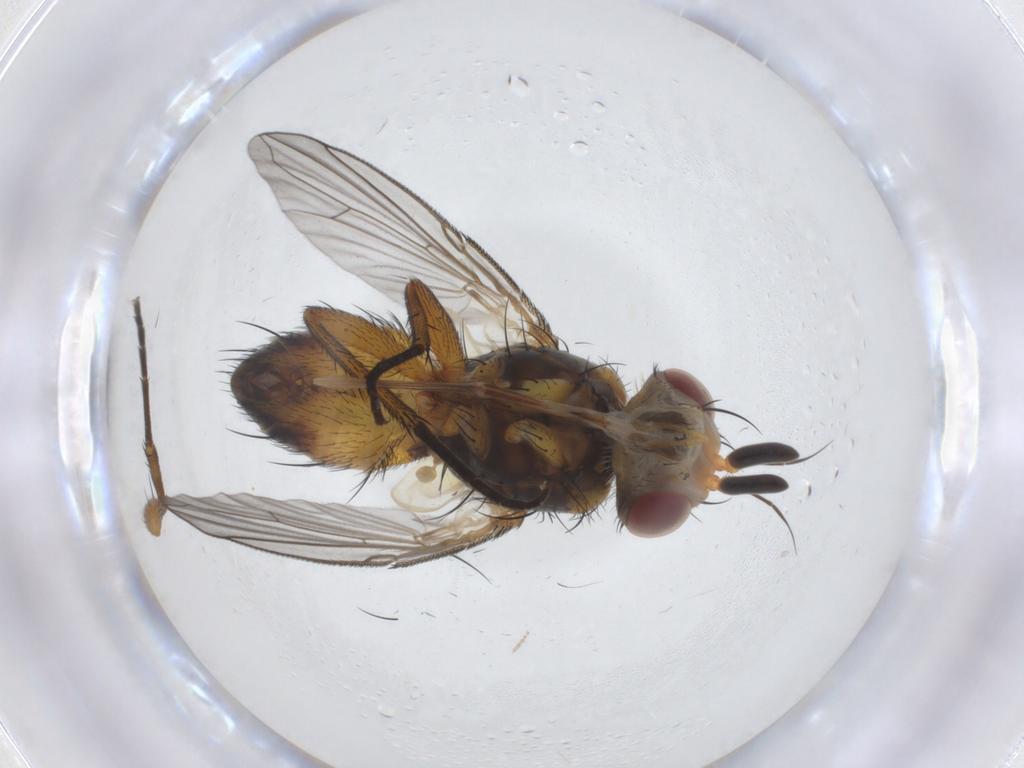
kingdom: Animalia
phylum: Arthropoda
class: Insecta
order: Diptera
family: Tachinidae
